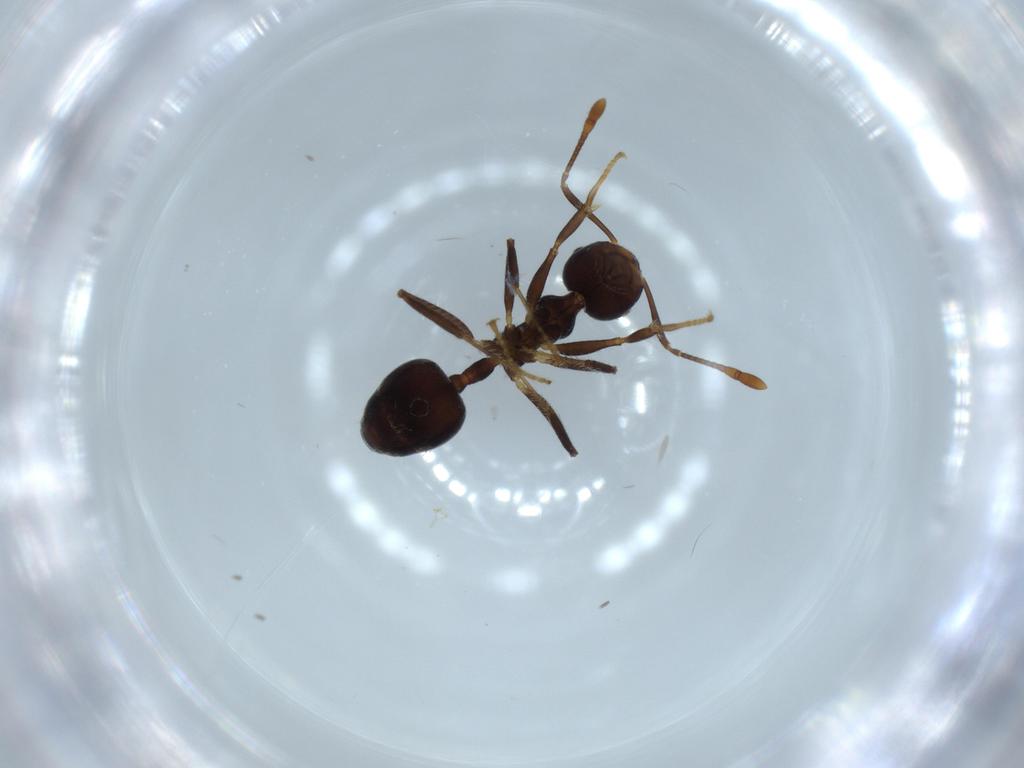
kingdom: Animalia
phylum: Arthropoda
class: Insecta
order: Hymenoptera
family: Formicidae
